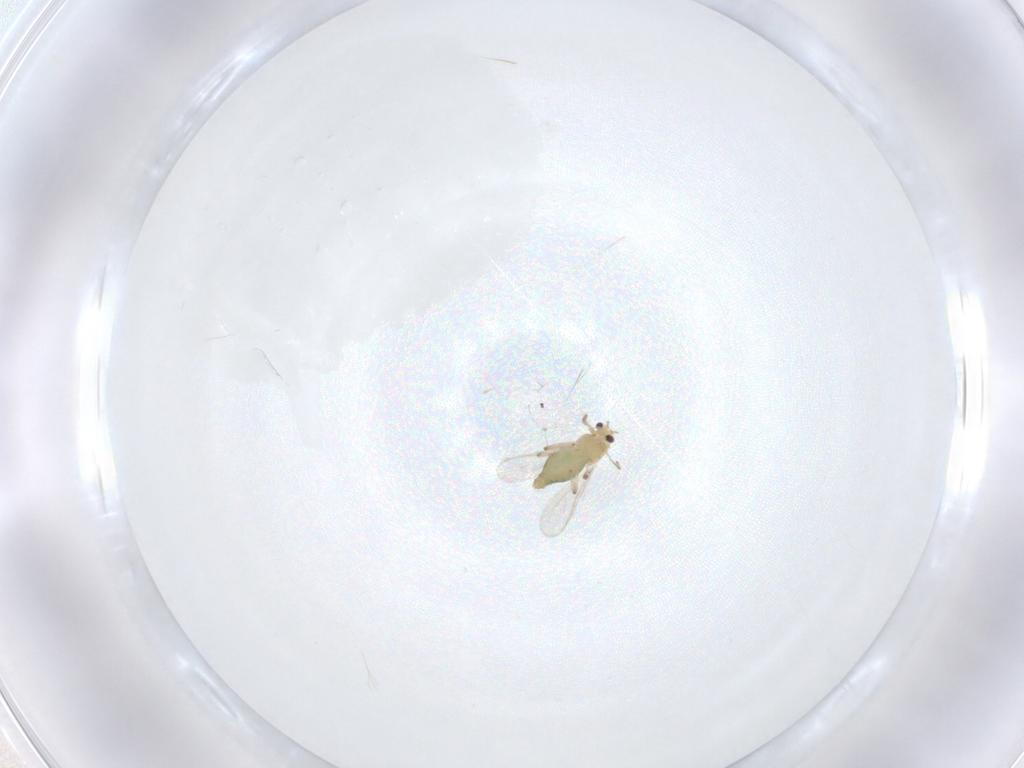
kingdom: Animalia
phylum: Arthropoda
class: Insecta
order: Diptera
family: Chironomidae
